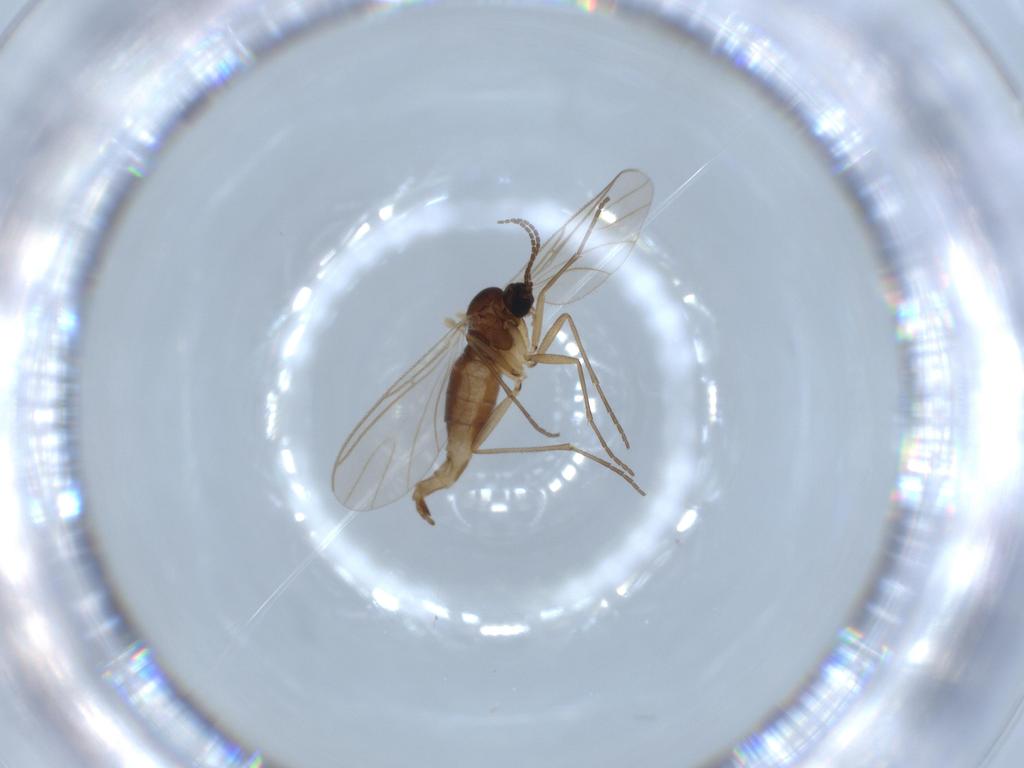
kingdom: Animalia
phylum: Arthropoda
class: Insecta
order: Diptera
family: Sciaridae
